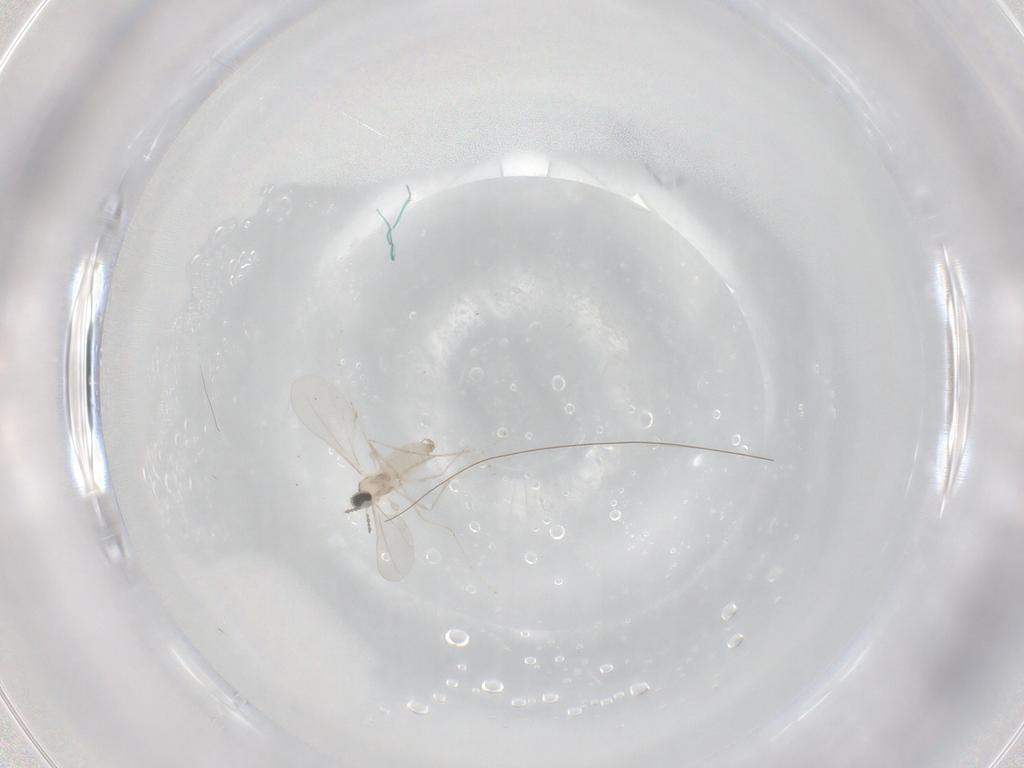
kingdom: Animalia
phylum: Arthropoda
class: Insecta
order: Diptera
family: Cecidomyiidae
